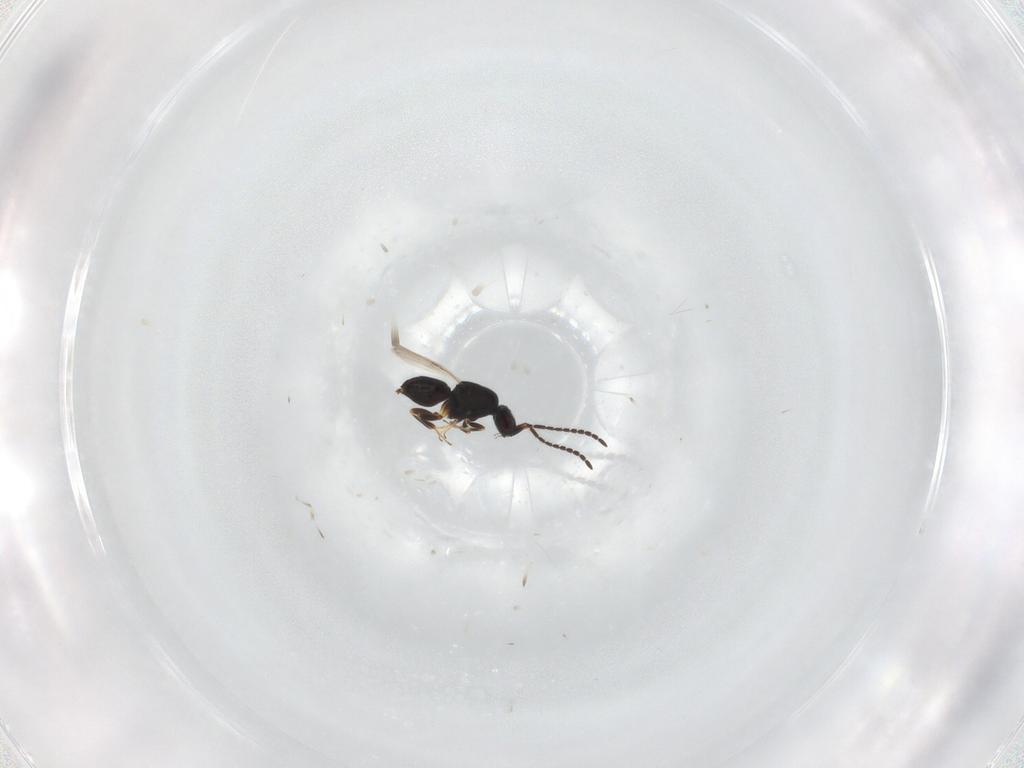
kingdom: Animalia
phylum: Arthropoda
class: Insecta
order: Hymenoptera
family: Ceraphronidae
